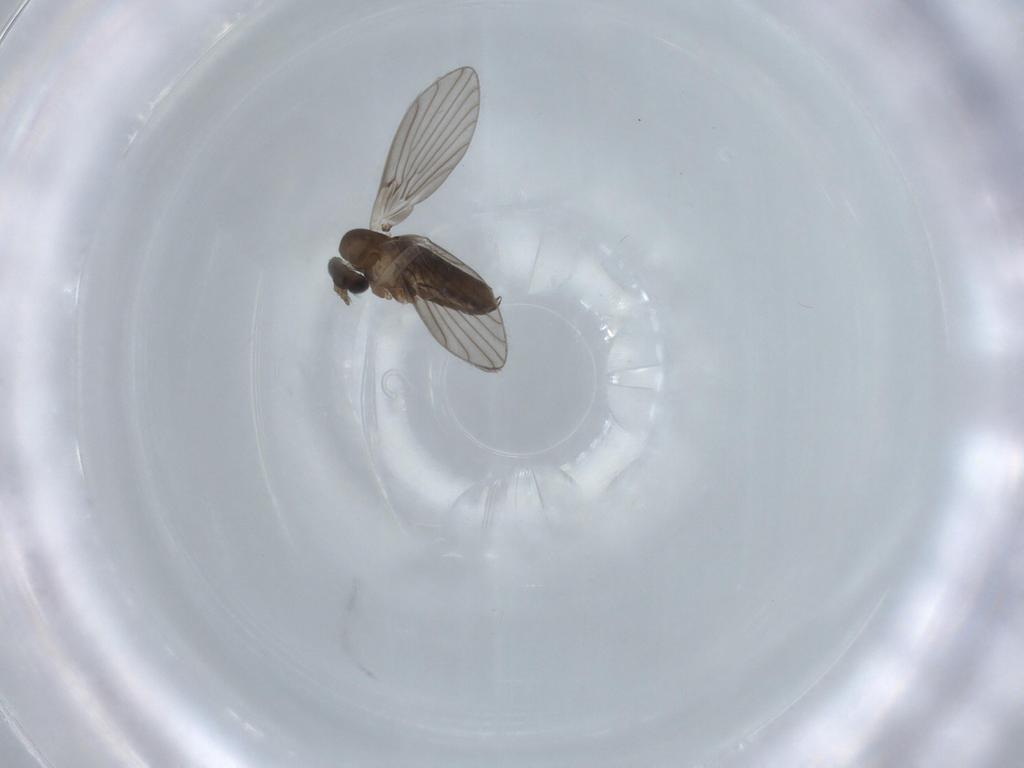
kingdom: Animalia
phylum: Arthropoda
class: Insecta
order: Diptera
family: Psychodidae
